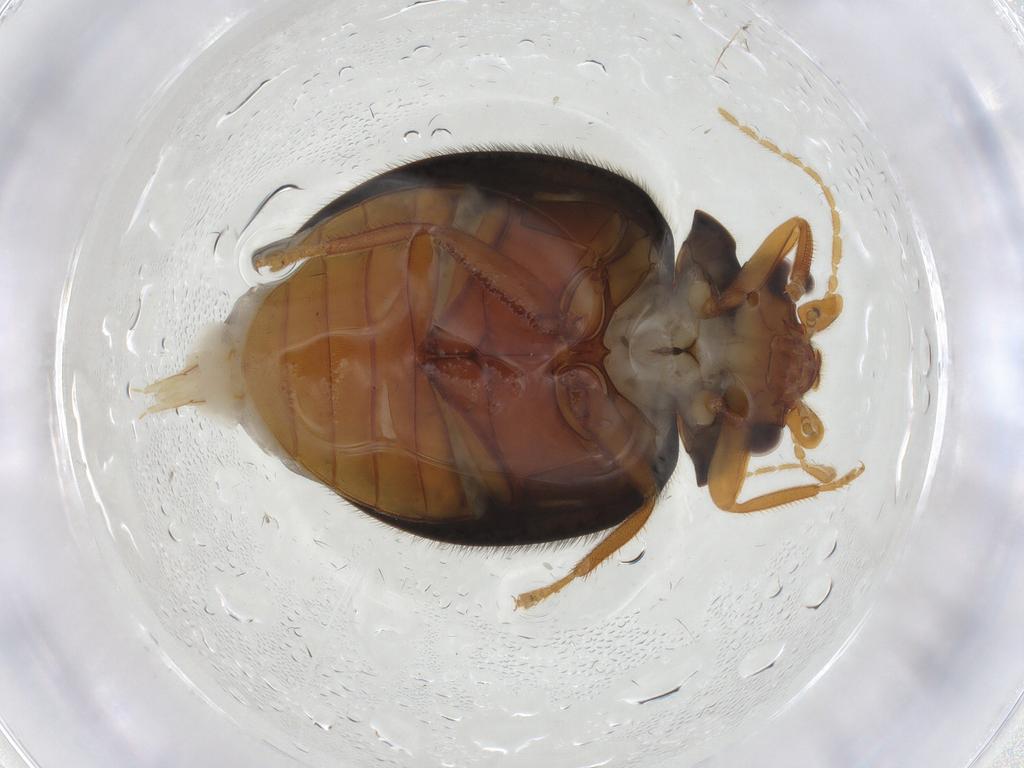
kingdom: Animalia
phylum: Arthropoda
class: Insecta
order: Coleoptera
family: Scirtidae
